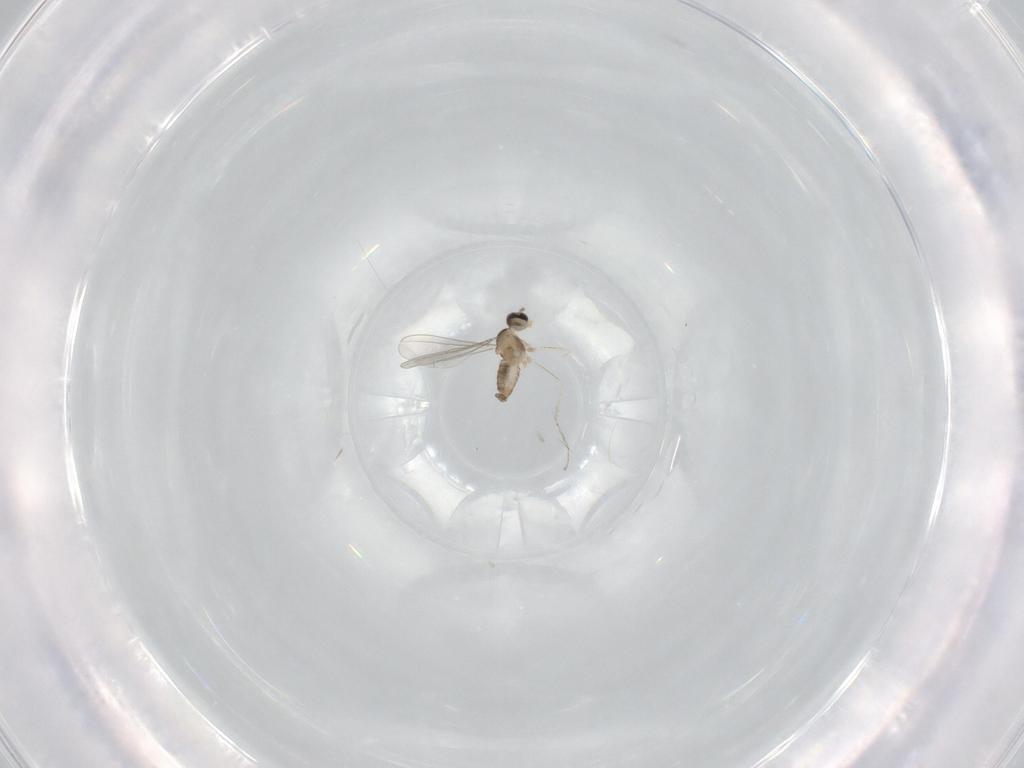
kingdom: Animalia
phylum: Arthropoda
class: Insecta
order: Diptera
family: Cecidomyiidae
